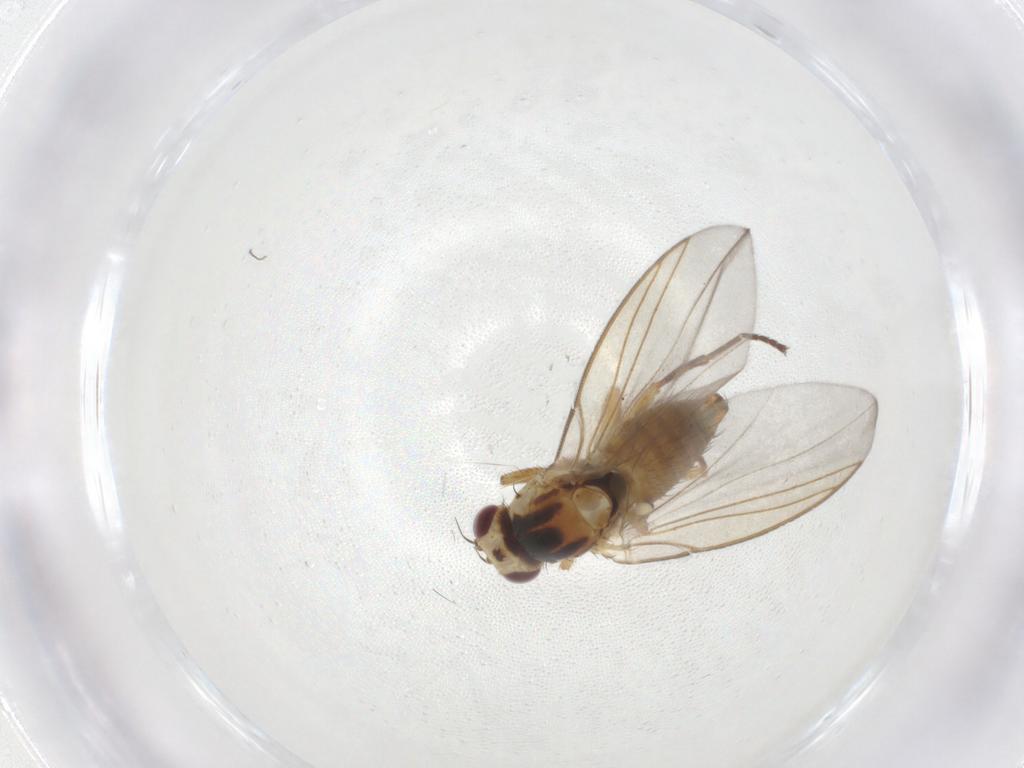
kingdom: Animalia
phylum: Arthropoda
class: Insecta
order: Diptera
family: Agromyzidae
